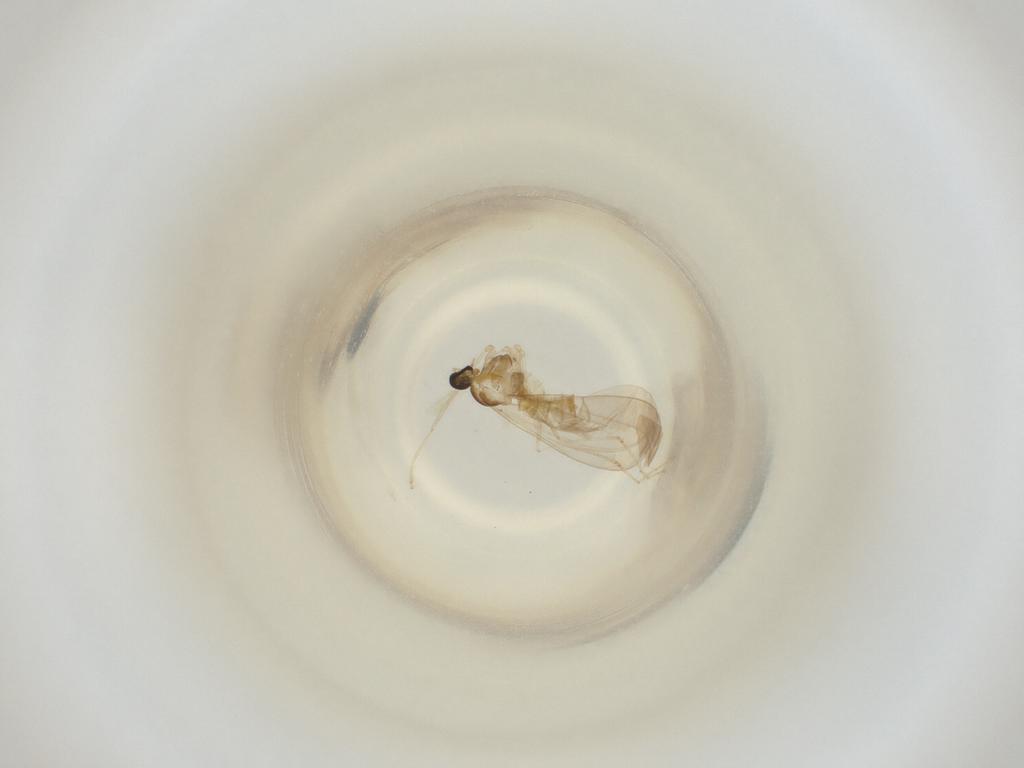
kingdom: Animalia
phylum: Arthropoda
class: Insecta
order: Diptera
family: Cecidomyiidae
